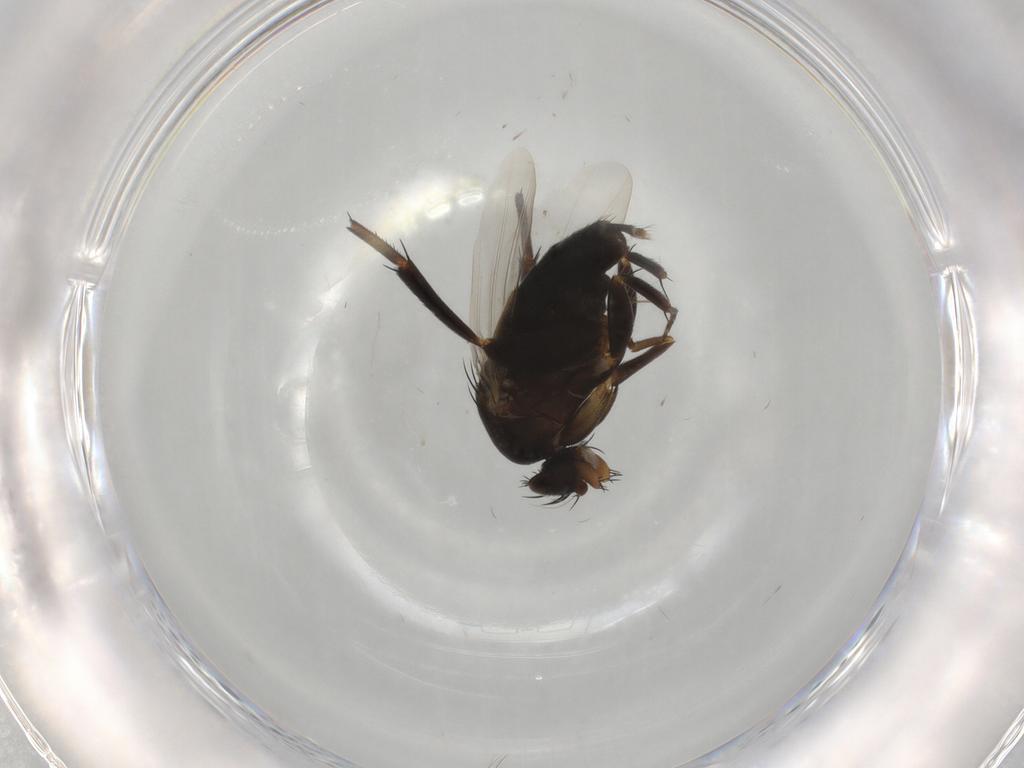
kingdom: Animalia
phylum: Arthropoda
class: Insecta
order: Diptera
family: Phoridae
